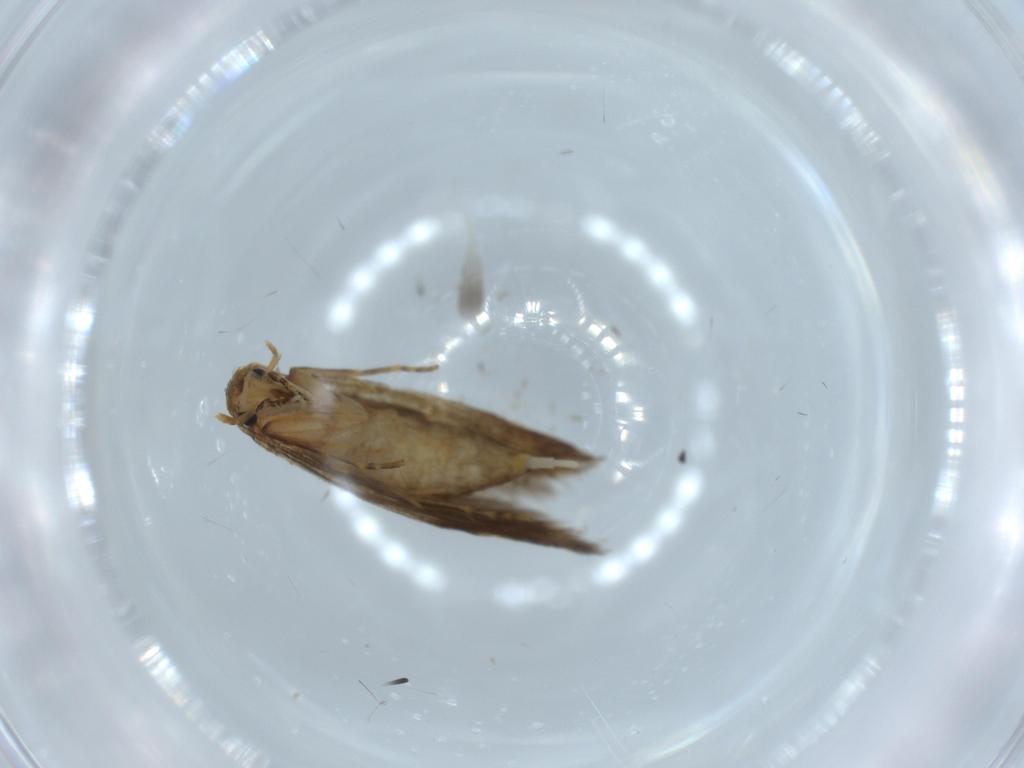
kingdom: Animalia
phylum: Arthropoda
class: Insecta
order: Lepidoptera
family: Tineidae
